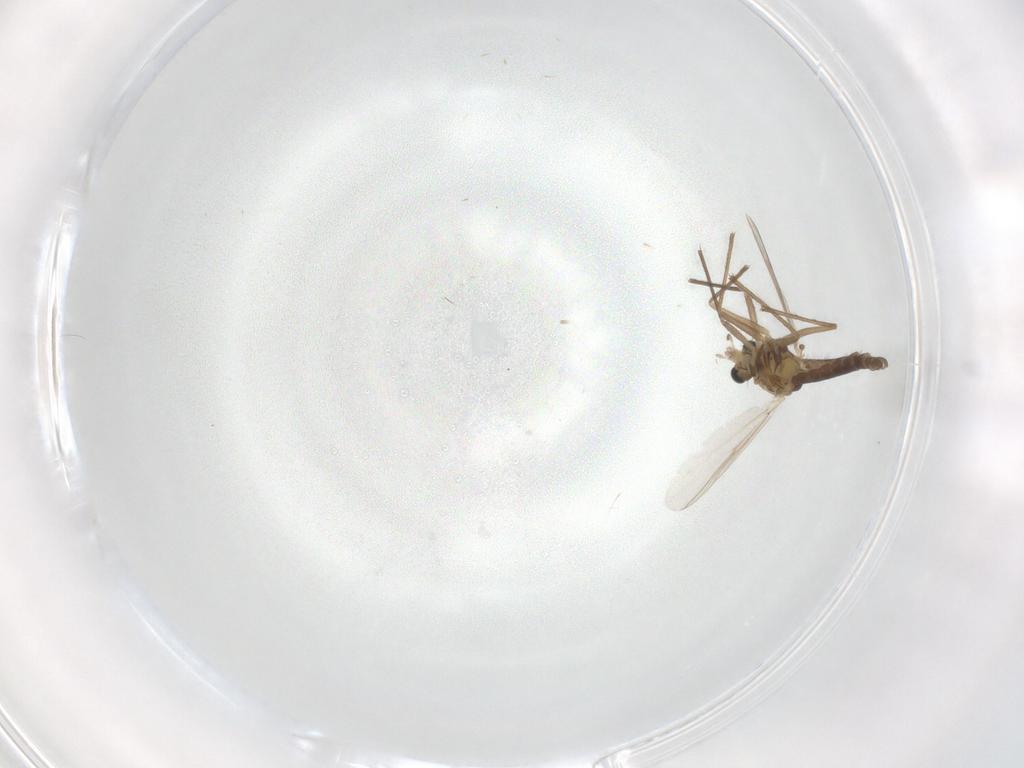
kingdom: Animalia
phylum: Arthropoda
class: Insecta
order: Diptera
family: Chironomidae
